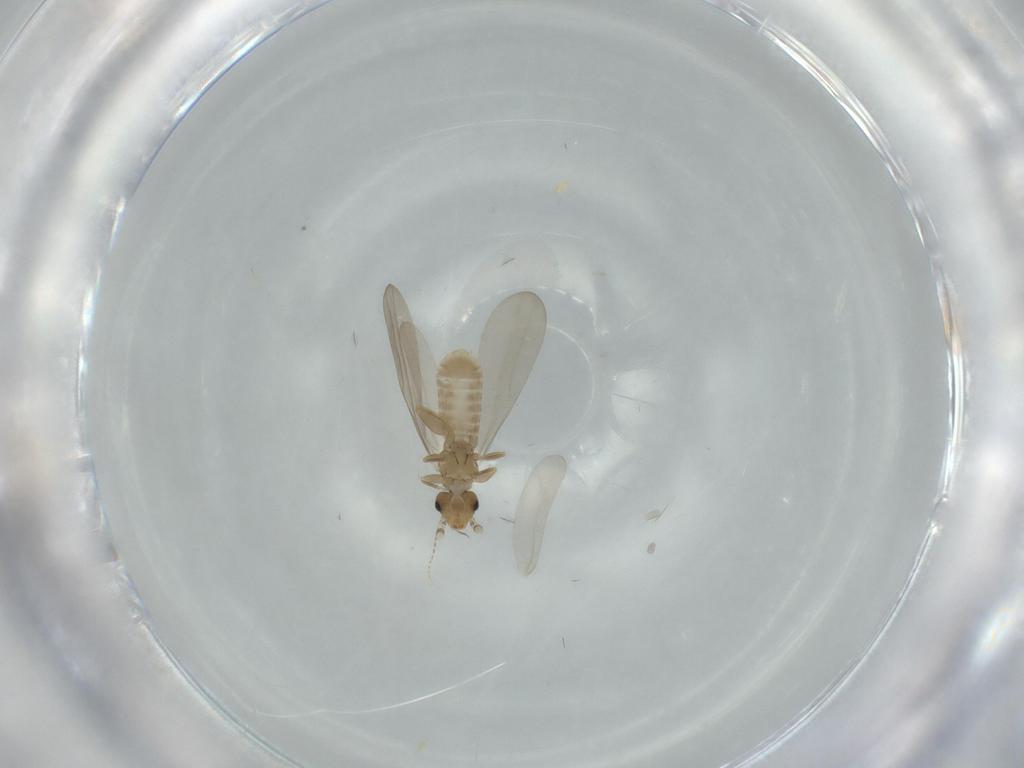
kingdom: Animalia
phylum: Arthropoda
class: Insecta
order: Psocodea
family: Liposcelididae
